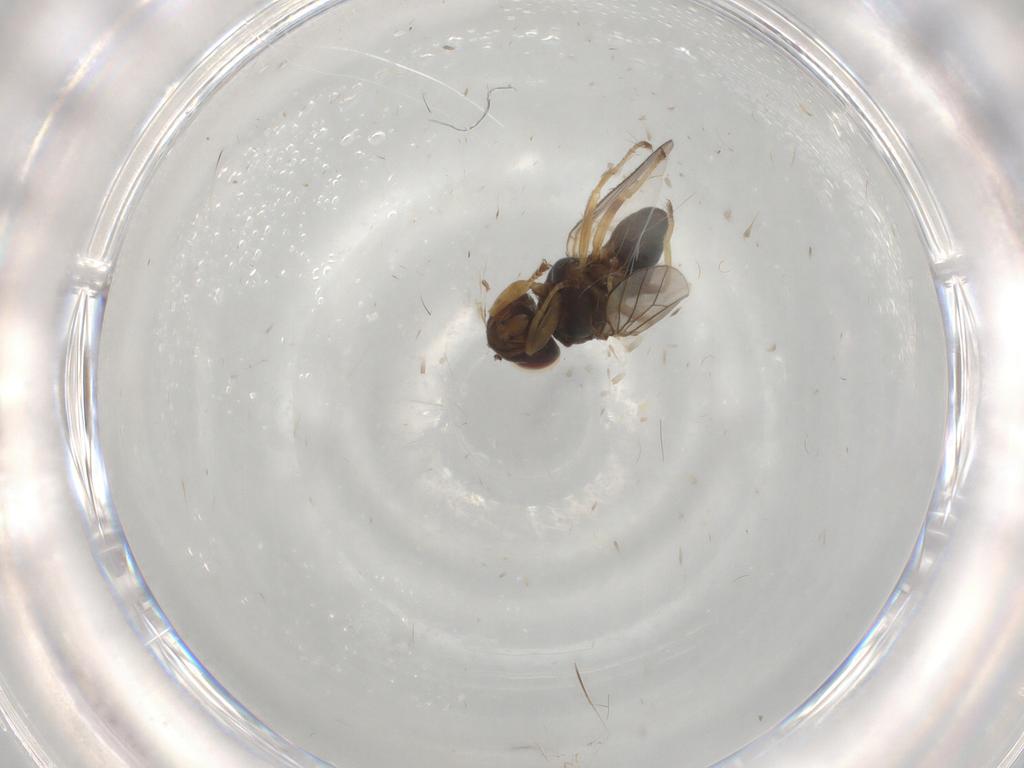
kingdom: Animalia
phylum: Arthropoda
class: Insecta
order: Diptera
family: Canacidae
